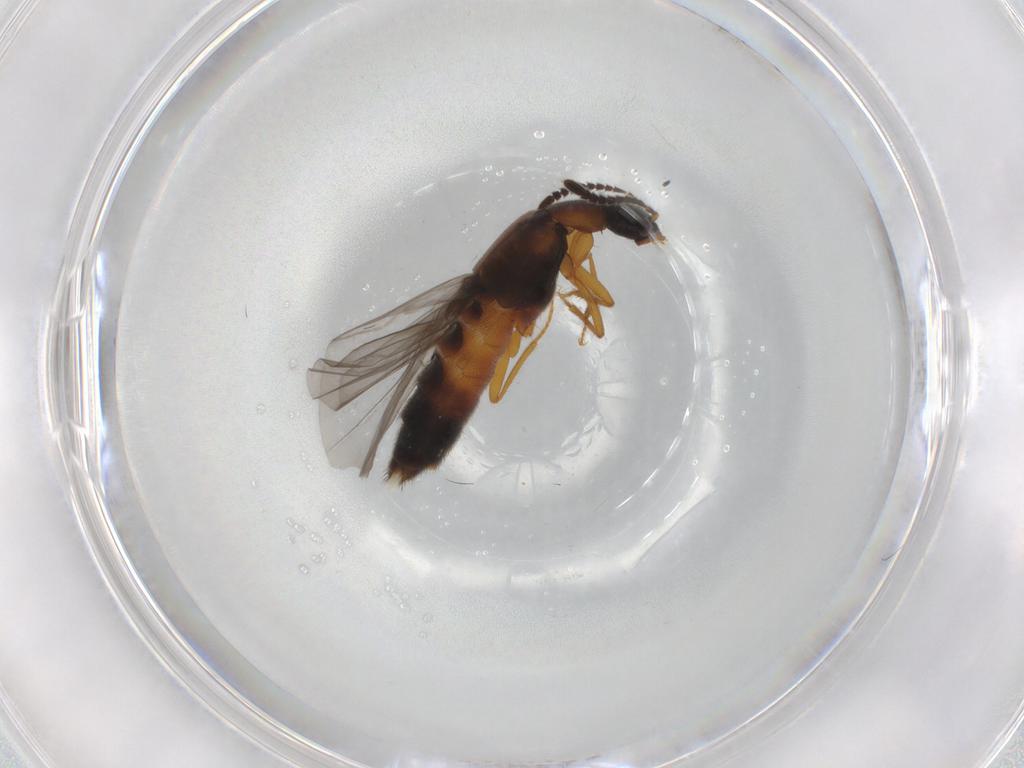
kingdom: Animalia
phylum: Arthropoda
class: Insecta
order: Coleoptera
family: Staphylinidae
